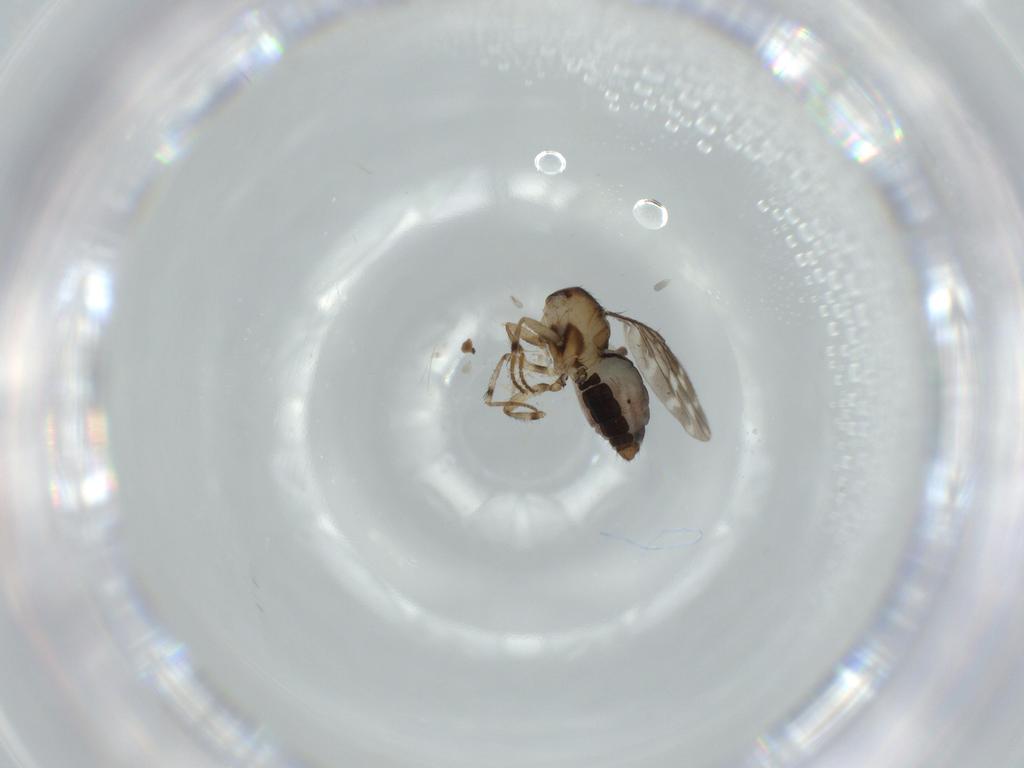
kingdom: Animalia
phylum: Arthropoda
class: Insecta
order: Diptera
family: Sphaeroceridae
